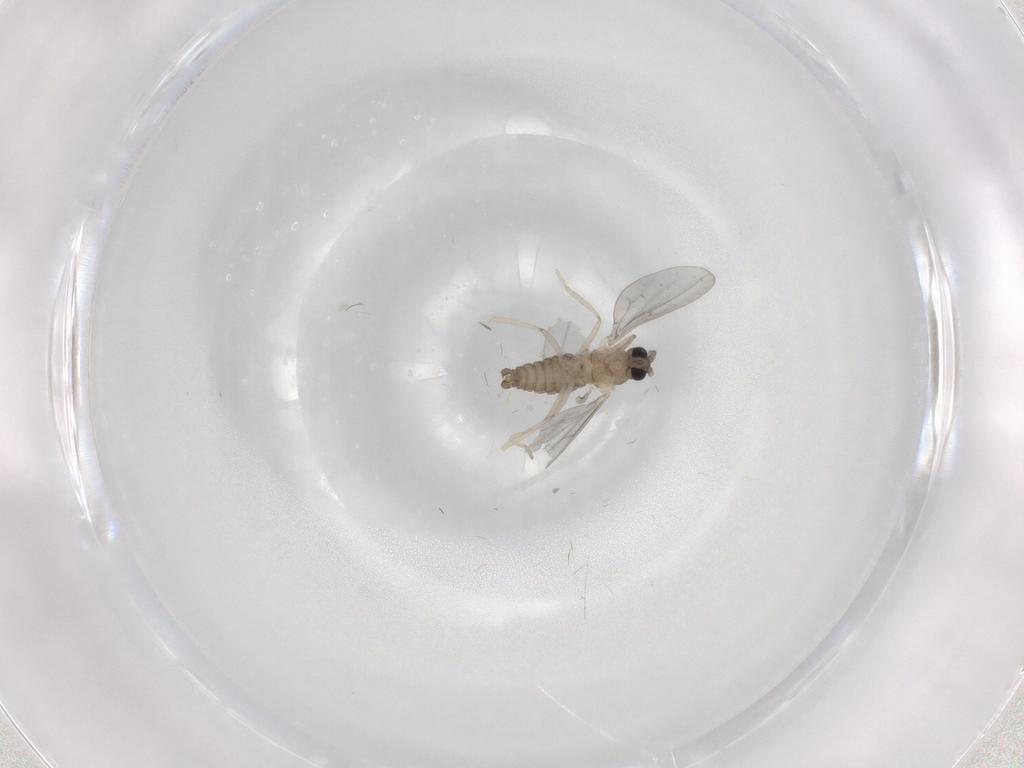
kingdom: Animalia
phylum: Arthropoda
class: Insecta
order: Diptera
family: Cecidomyiidae
